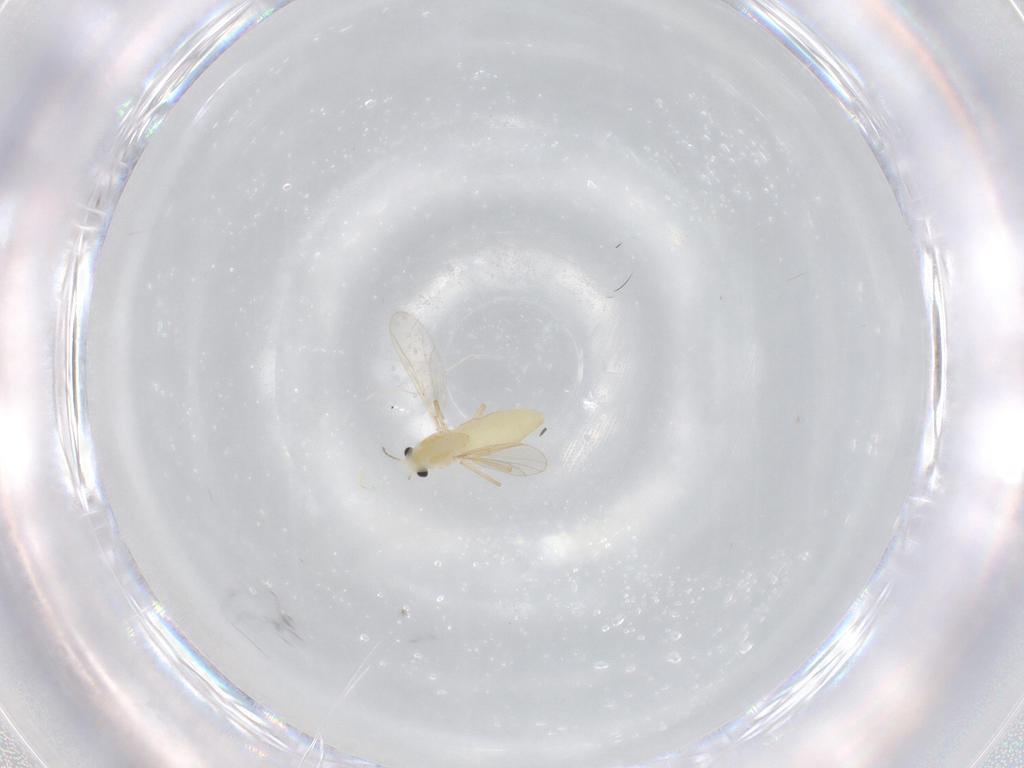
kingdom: Animalia
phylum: Arthropoda
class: Insecta
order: Diptera
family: Chironomidae
